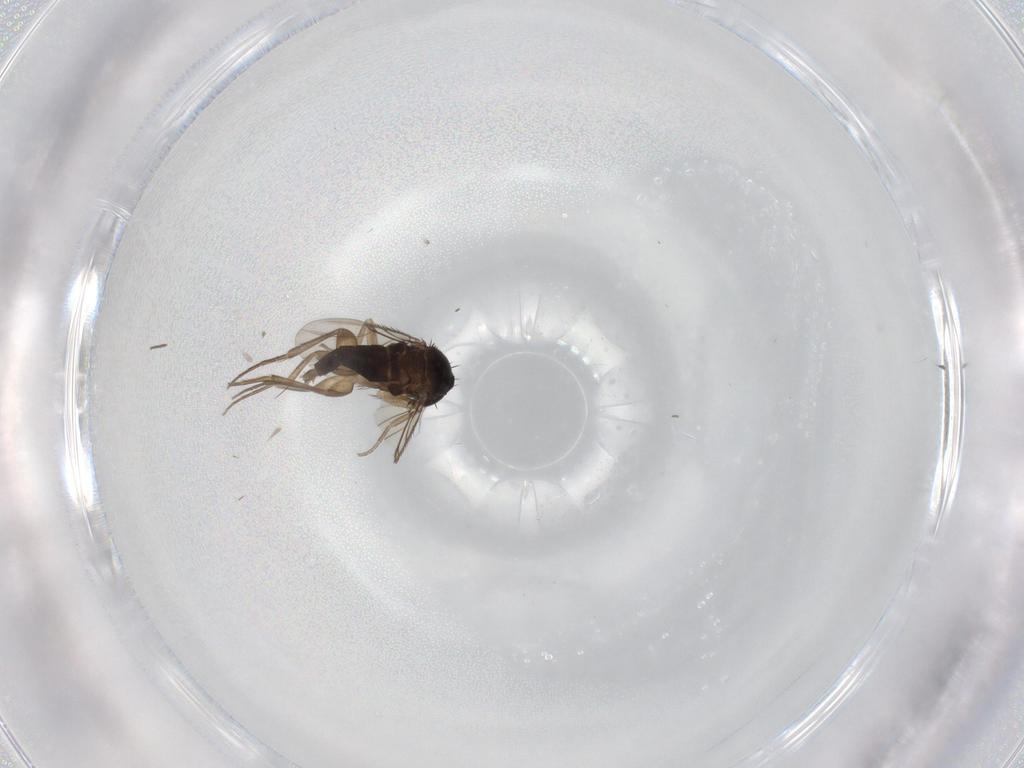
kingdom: Animalia
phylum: Arthropoda
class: Insecta
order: Diptera
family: Phoridae
